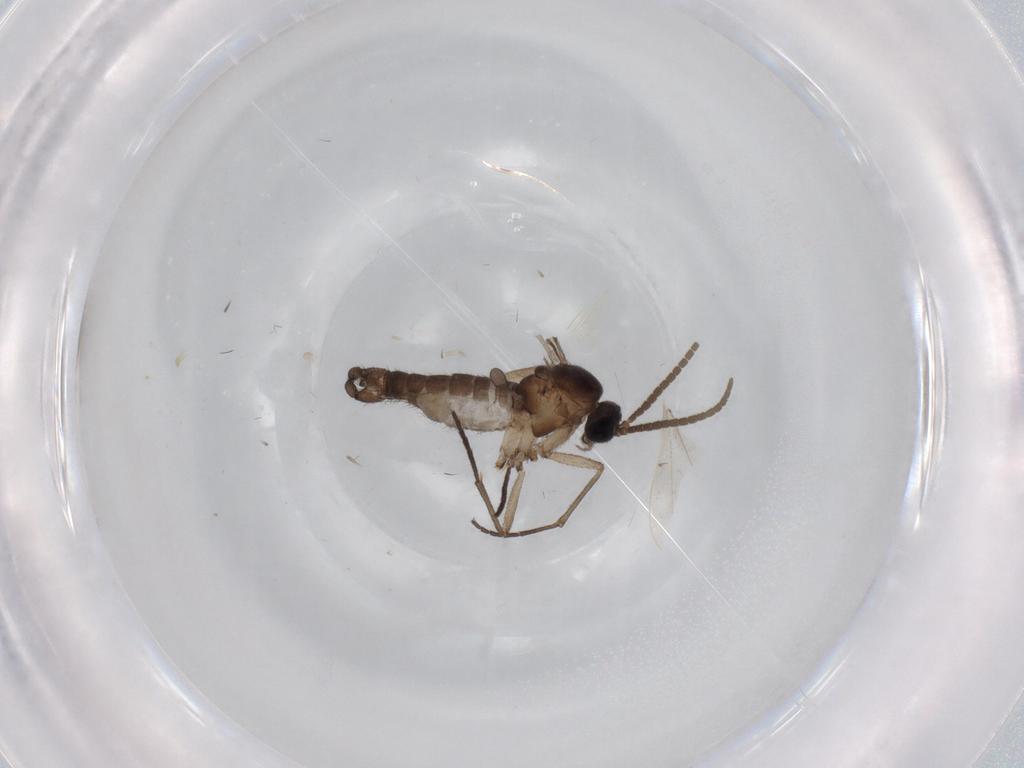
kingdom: Animalia
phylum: Arthropoda
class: Insecta
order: Diptera
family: Cecidomyiidae
